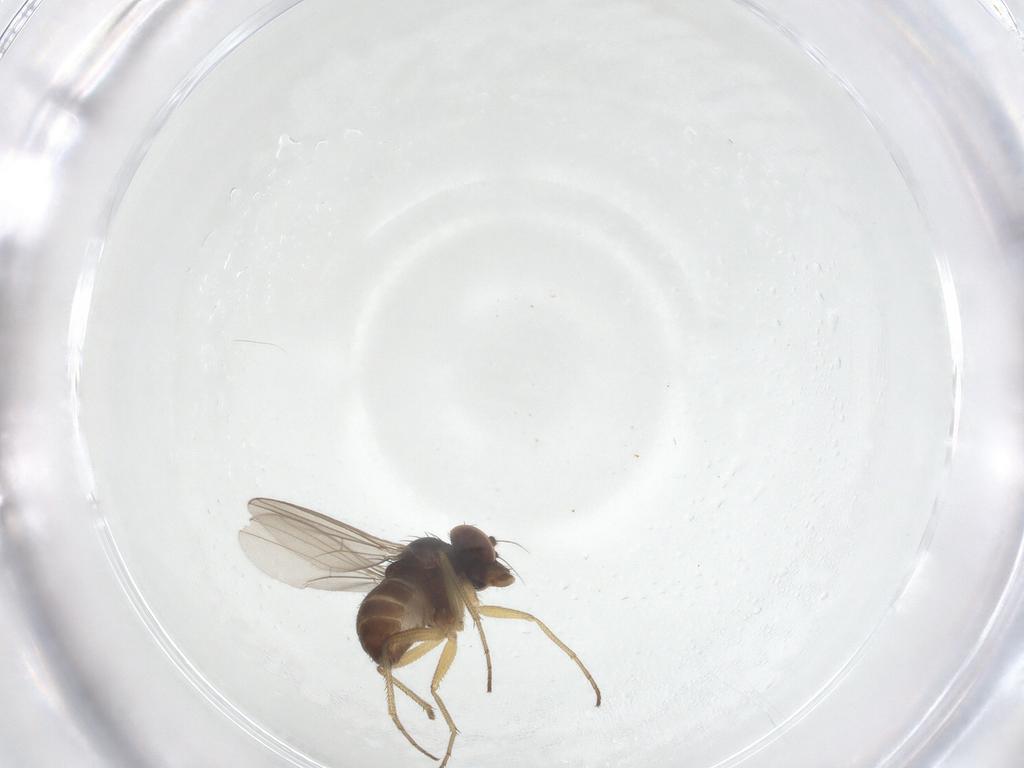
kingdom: Animalia
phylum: Arthropoda
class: Insecta
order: Diptera
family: Dolichopodidae
